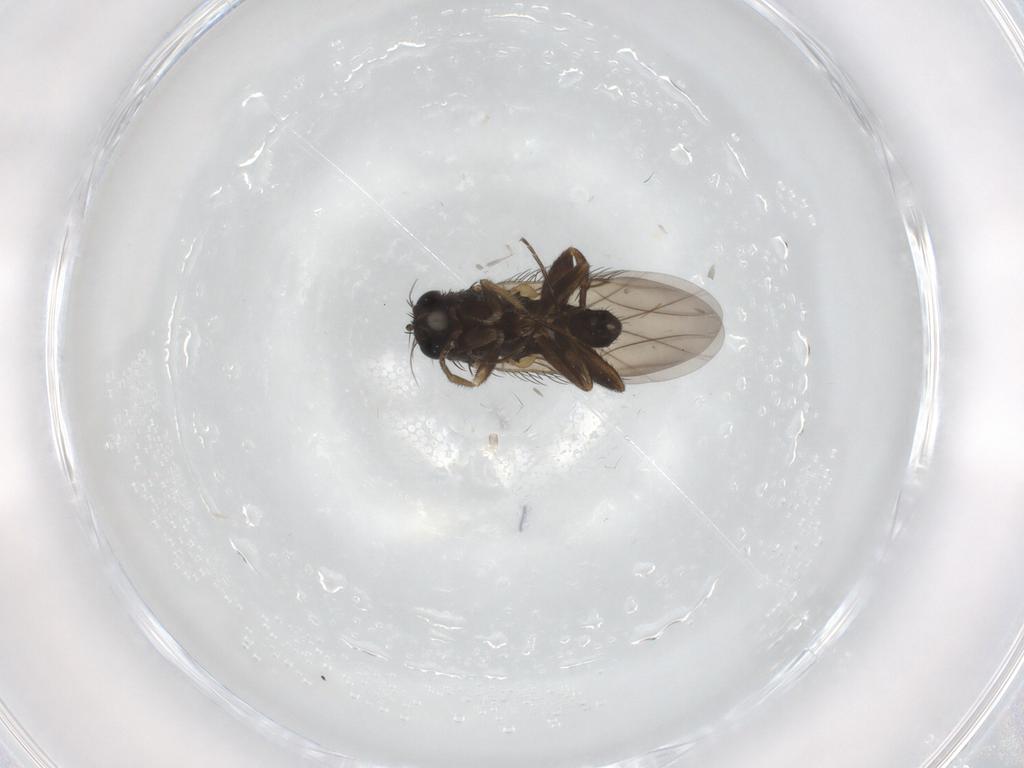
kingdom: Animalia
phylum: Arthropoda
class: Insecta
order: Diptera
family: Phoridae
